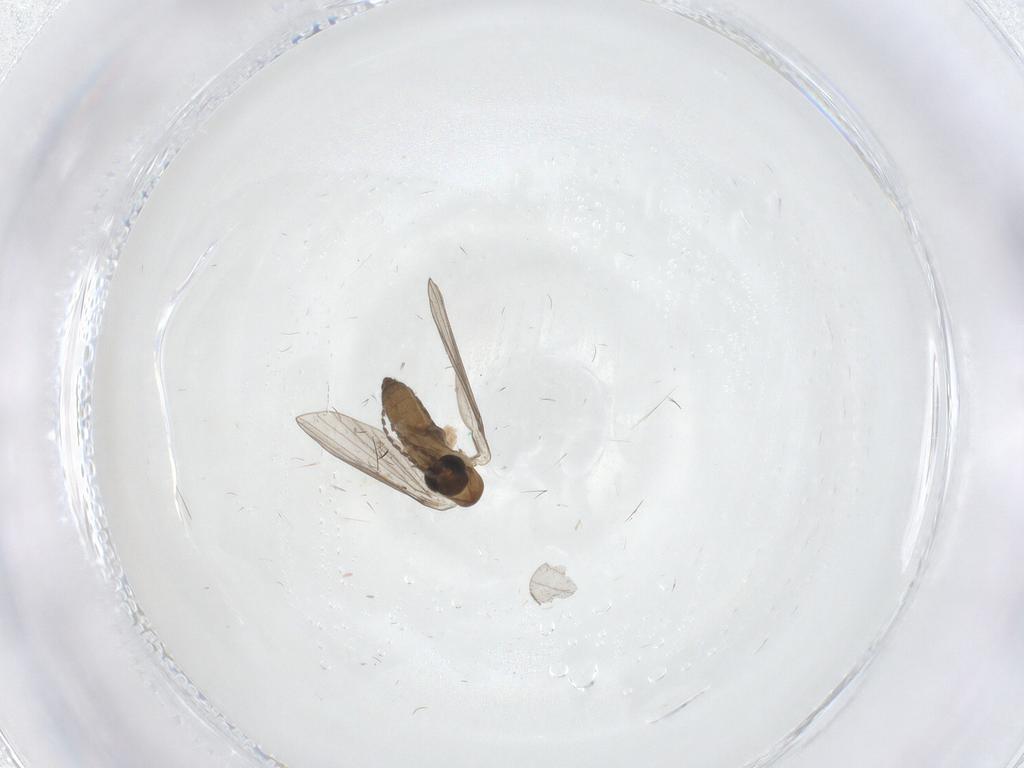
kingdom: Animalia
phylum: Arthropoda
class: Insecta
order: Diptera
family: Sciaridae
